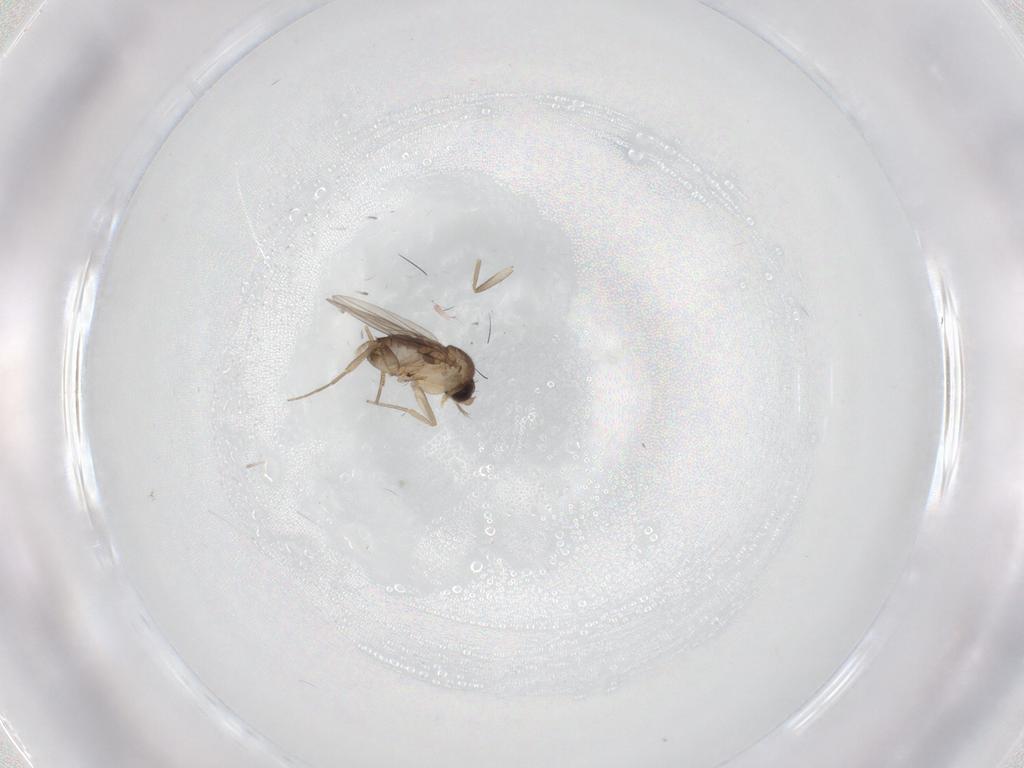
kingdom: Animalia
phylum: Arthropoda
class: Insecta
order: Diptera
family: Phoridae
